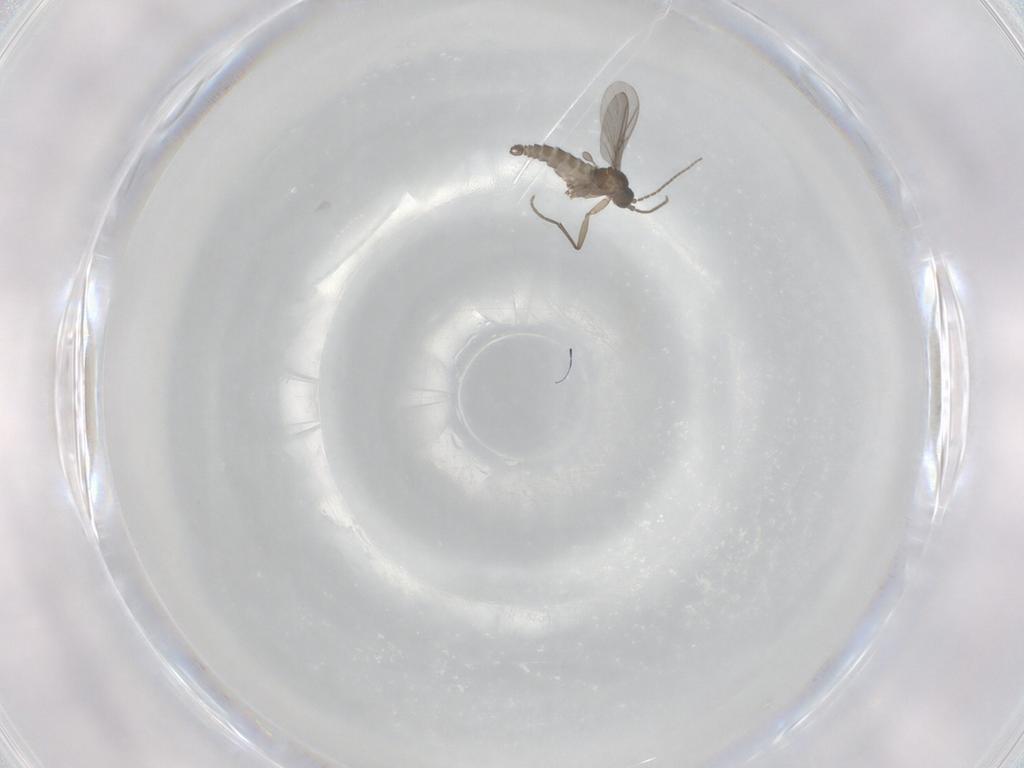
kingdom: Animalia
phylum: Arthropoda
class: Insecta
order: Diptera
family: Sciaridae
